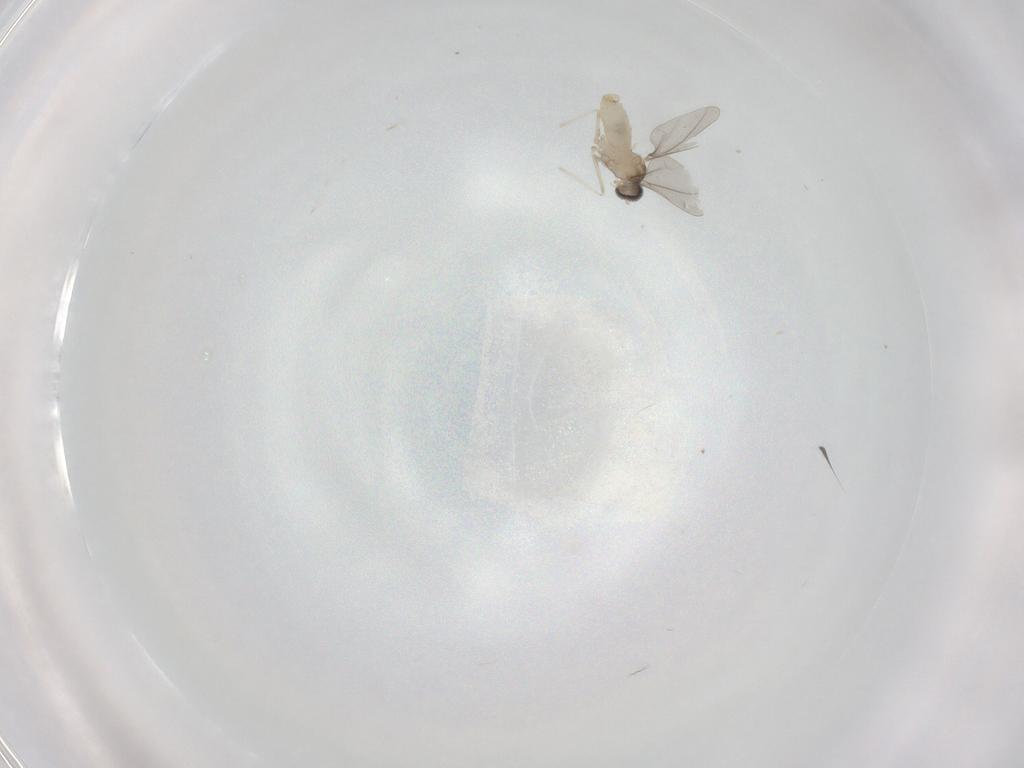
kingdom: Animalia
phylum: Arthropoda
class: Insecta
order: Diptera
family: Cecidomyiidae
